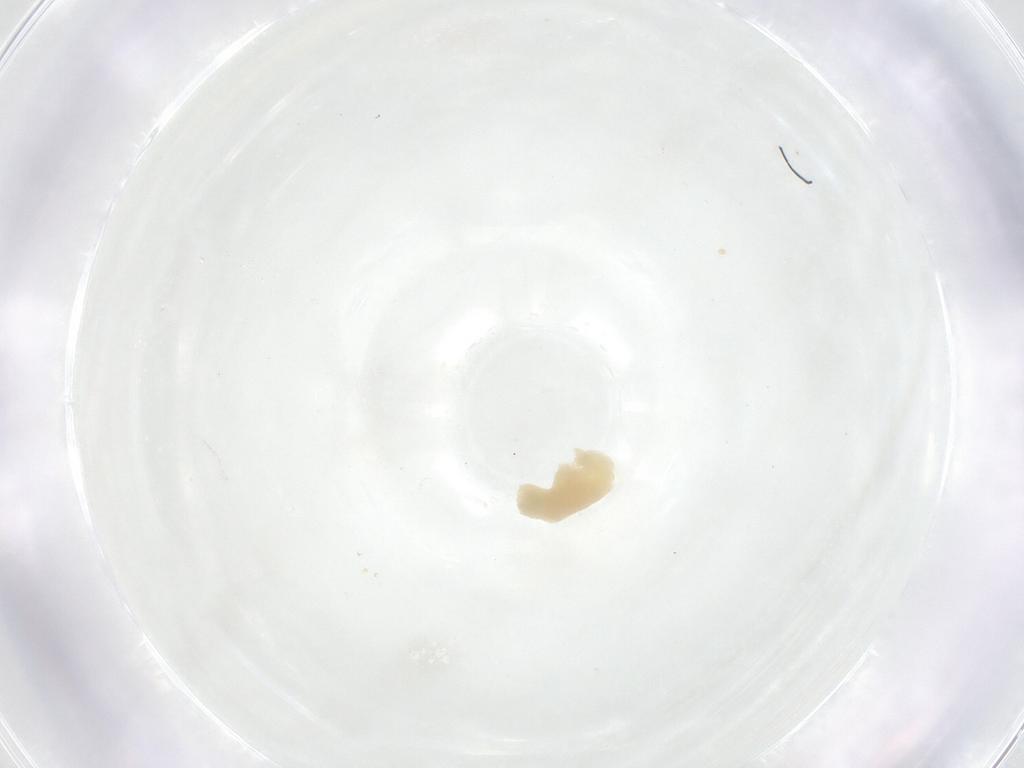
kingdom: Animalia
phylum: Arthropoda
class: Insecta
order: Diptera
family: Fergusoninidae
